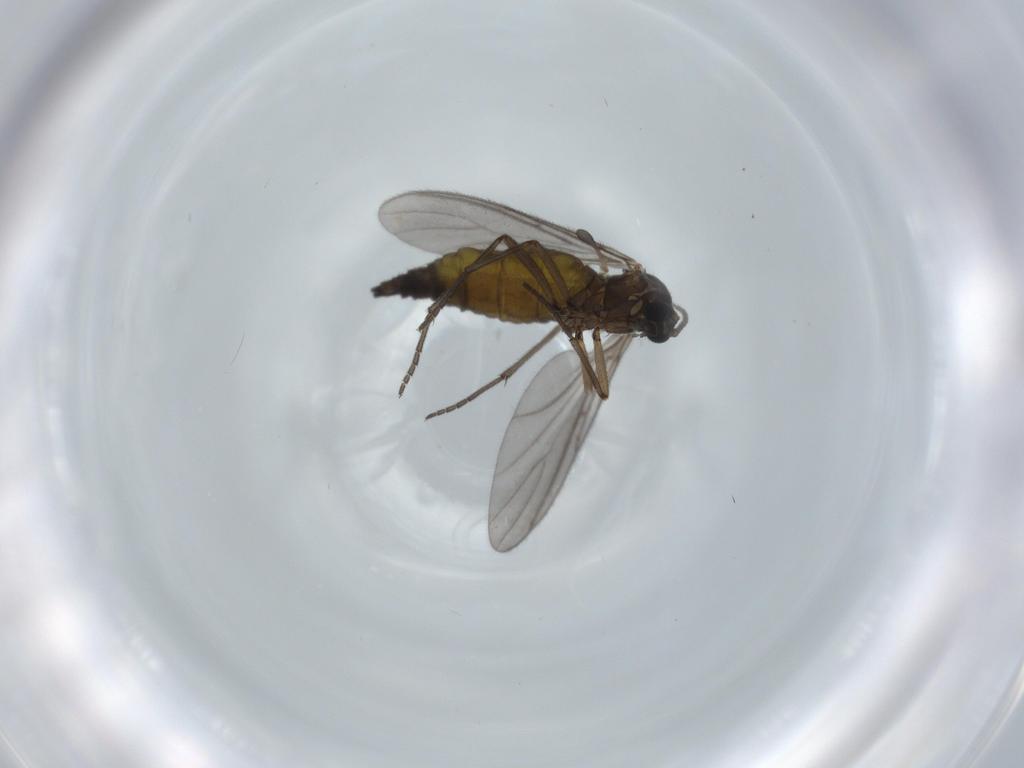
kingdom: Animalia
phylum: Arthropoda
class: Insecta
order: Diptera
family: Sciaridae
